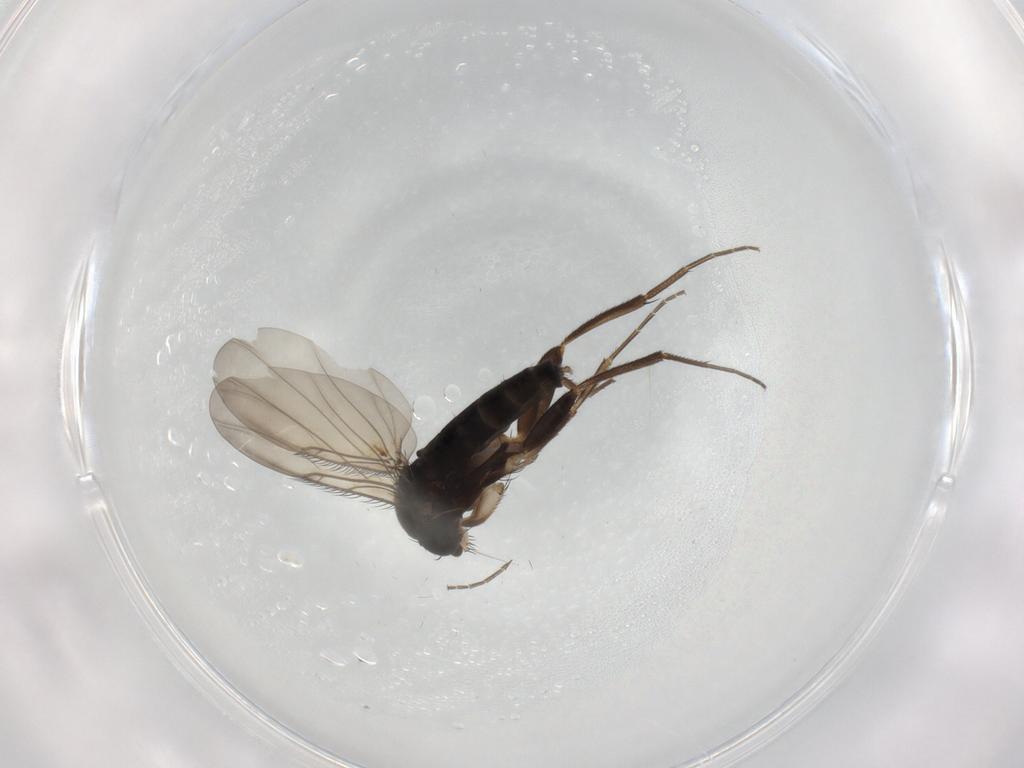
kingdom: Animalia
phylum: Arthropoda
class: Insecta
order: Diptera
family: Phoridae
